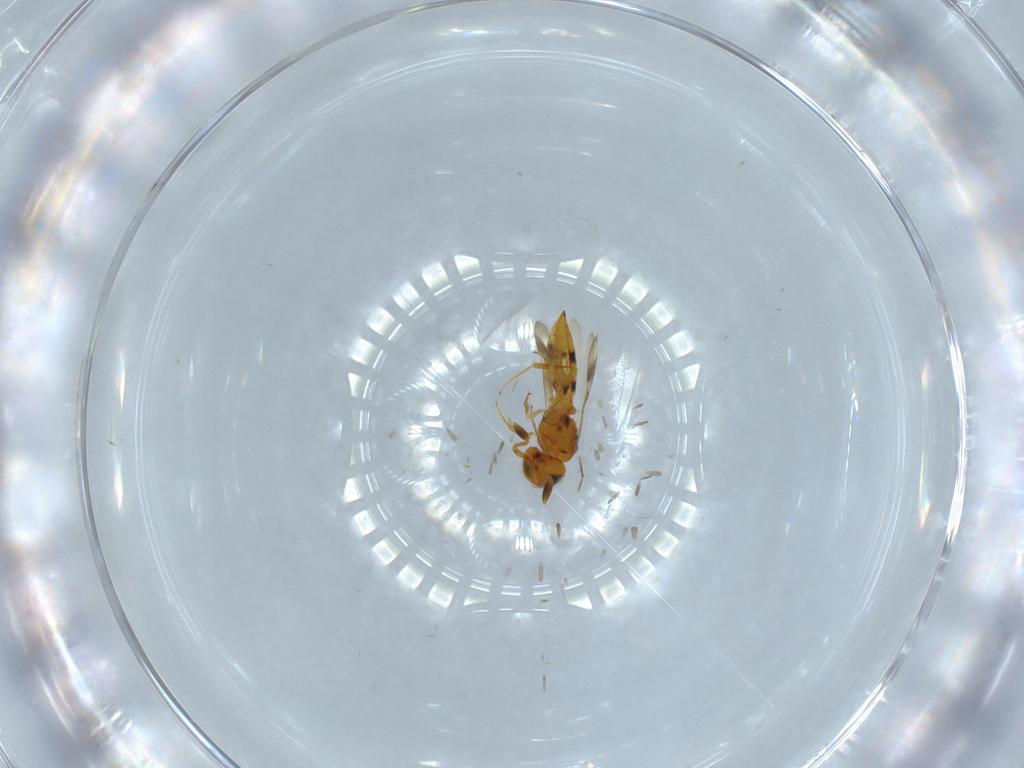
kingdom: Animalia
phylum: Arthropoda
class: Insecta
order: Hymenoptera
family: Scelionidae
